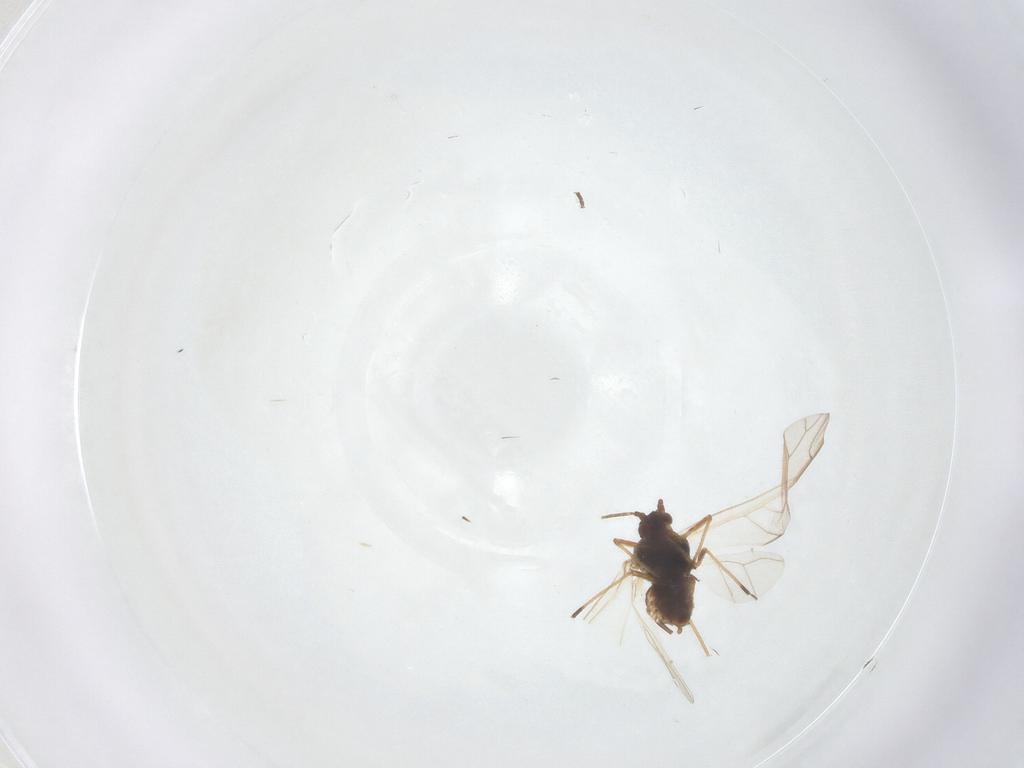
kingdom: Animalia
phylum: Arthropoda
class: Insecta
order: Hemiptera
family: Aphididae
